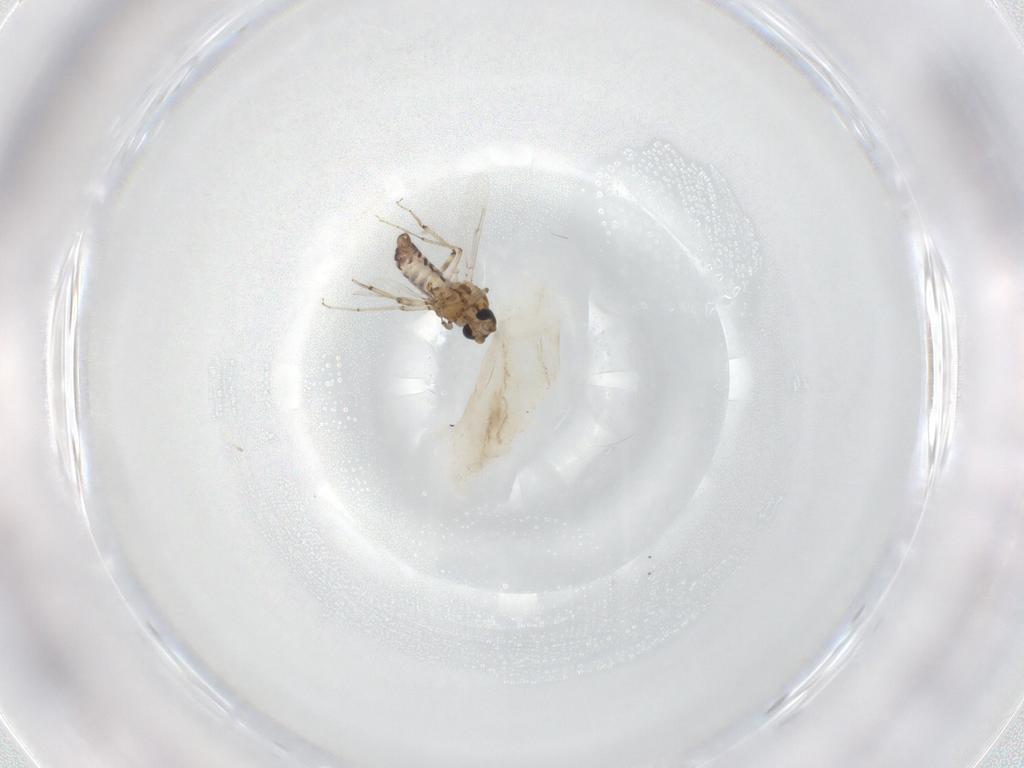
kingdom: Animalia
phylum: Arthropoda
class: Insecta
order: Diptera
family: Ceratopogonidae
